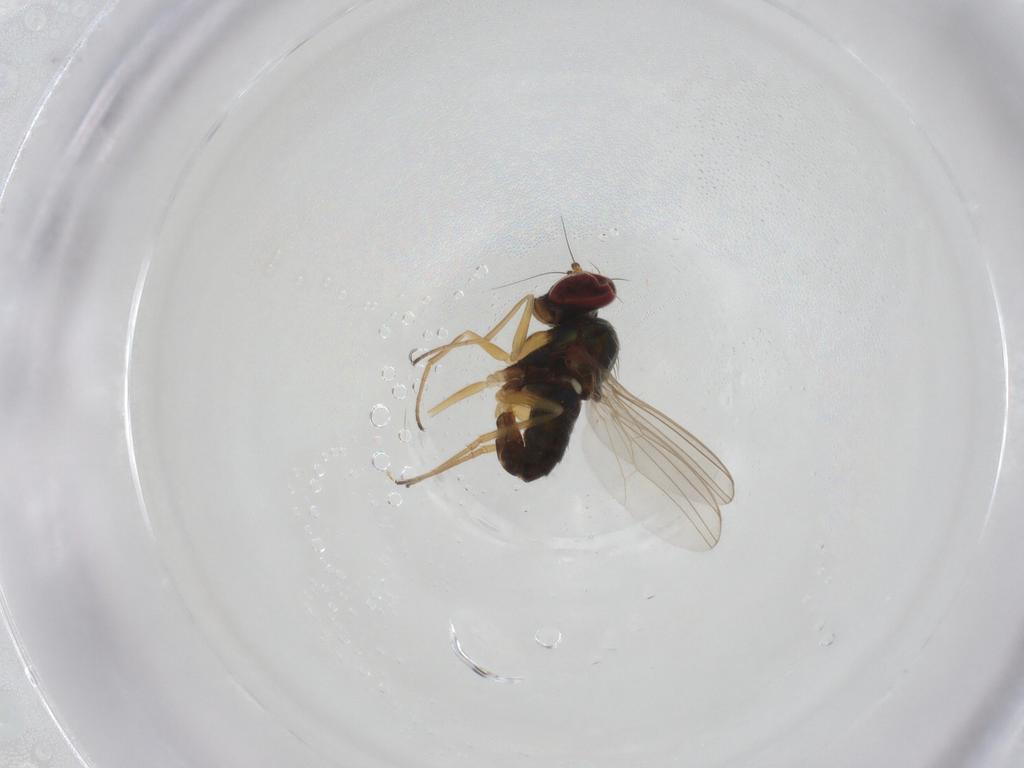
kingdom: Animalia
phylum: Arthropoda
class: Insecta
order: Diptera
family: Dolichopodidae
